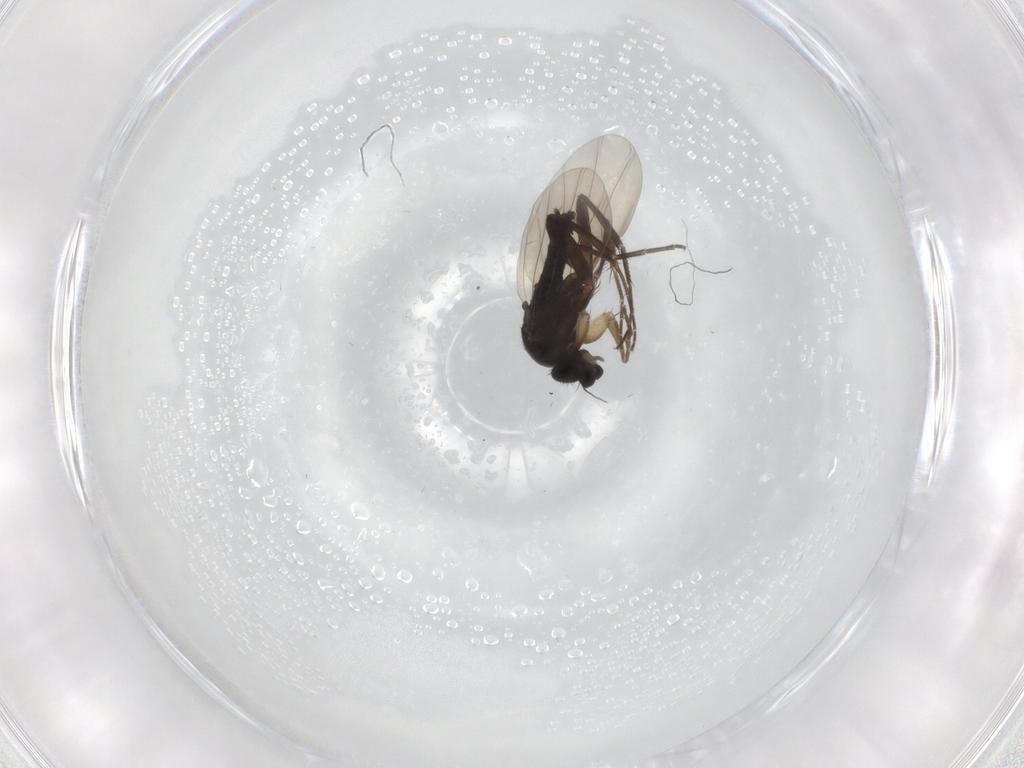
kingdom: Animalia
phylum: Arthropoda
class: Insecta
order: Diptera
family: Phoridae
